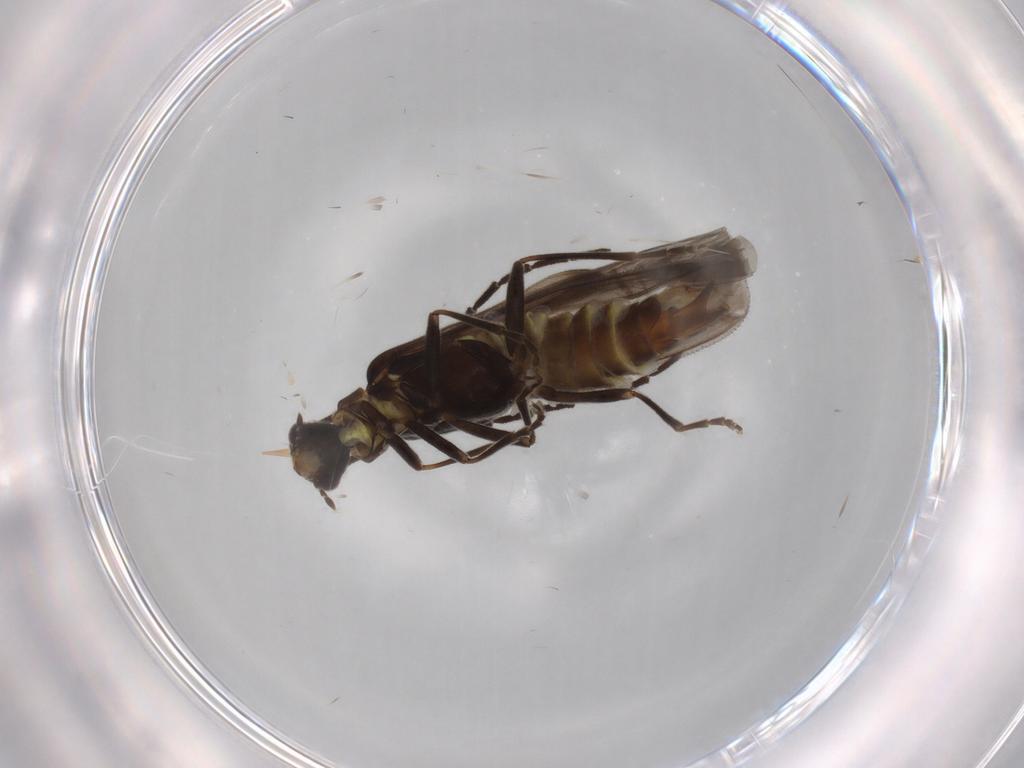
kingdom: Animalia
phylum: Arthropoda
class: Insecta
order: Coleoptera
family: Cantharidae
